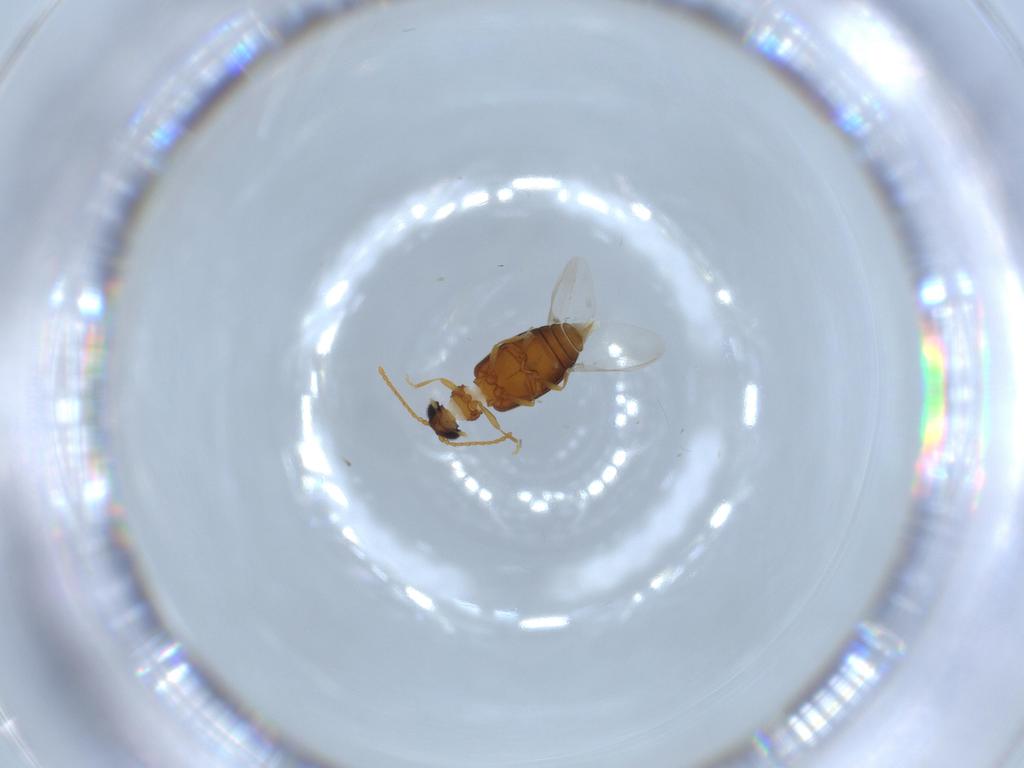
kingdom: Animalia
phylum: Arthropoda
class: Insecta
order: Coleoptera
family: Aderidae
